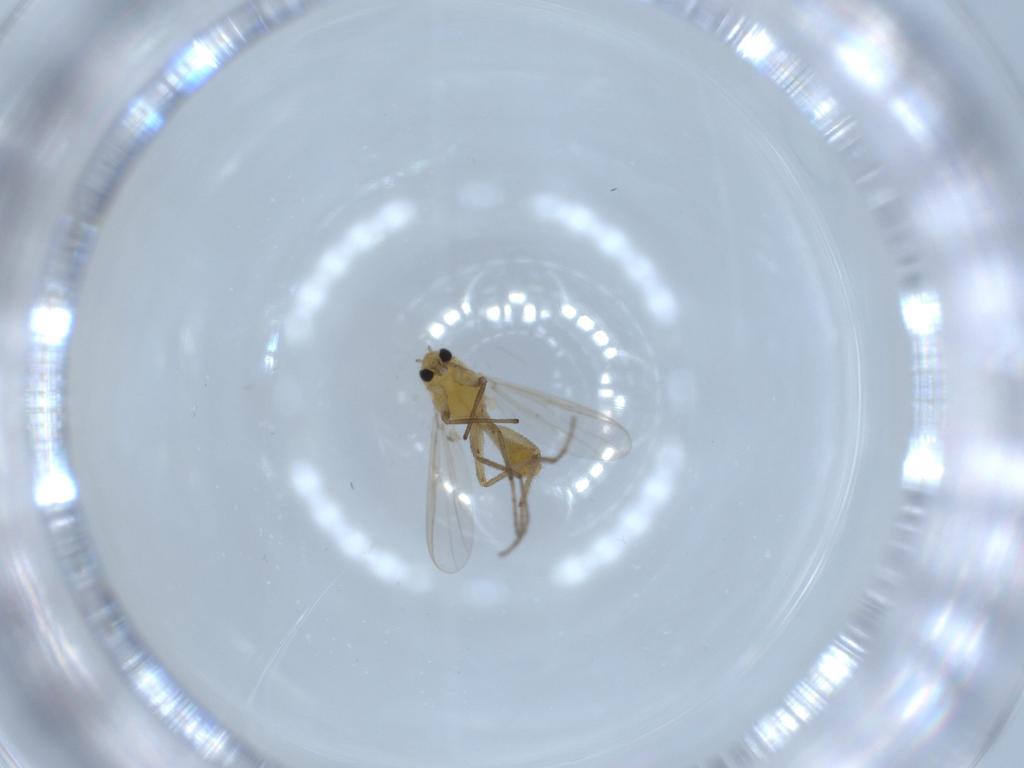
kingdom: Animalia
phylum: Arthropoda
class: Insecta
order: Diptera
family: Chironomidae
